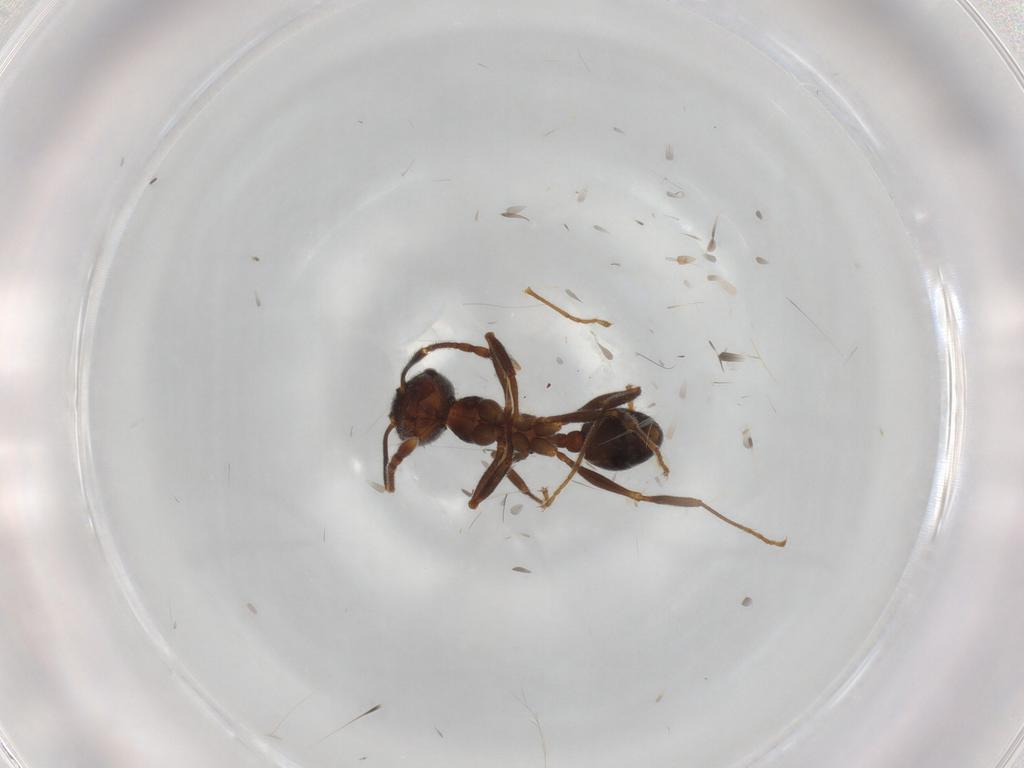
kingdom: Animalia
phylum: Arthropoda
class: Insecta
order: Hymenoptera
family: Formicidae
